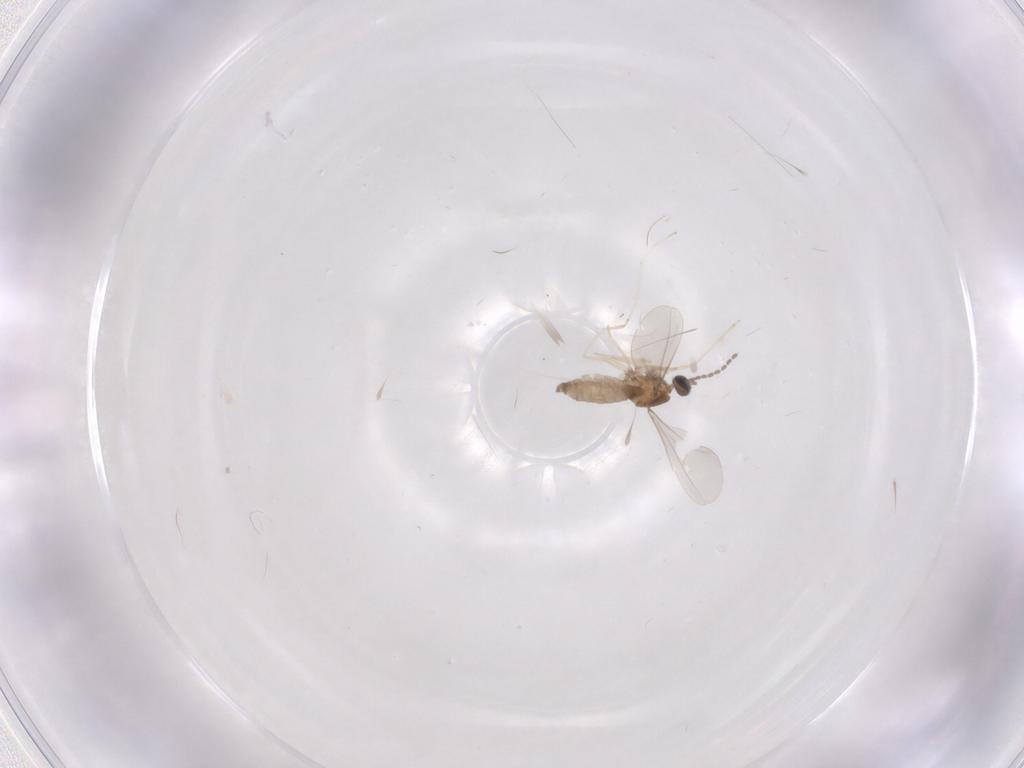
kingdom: Animalia
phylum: Arthropoda
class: Insecta
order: Diptera
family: Cecidomyiidae
